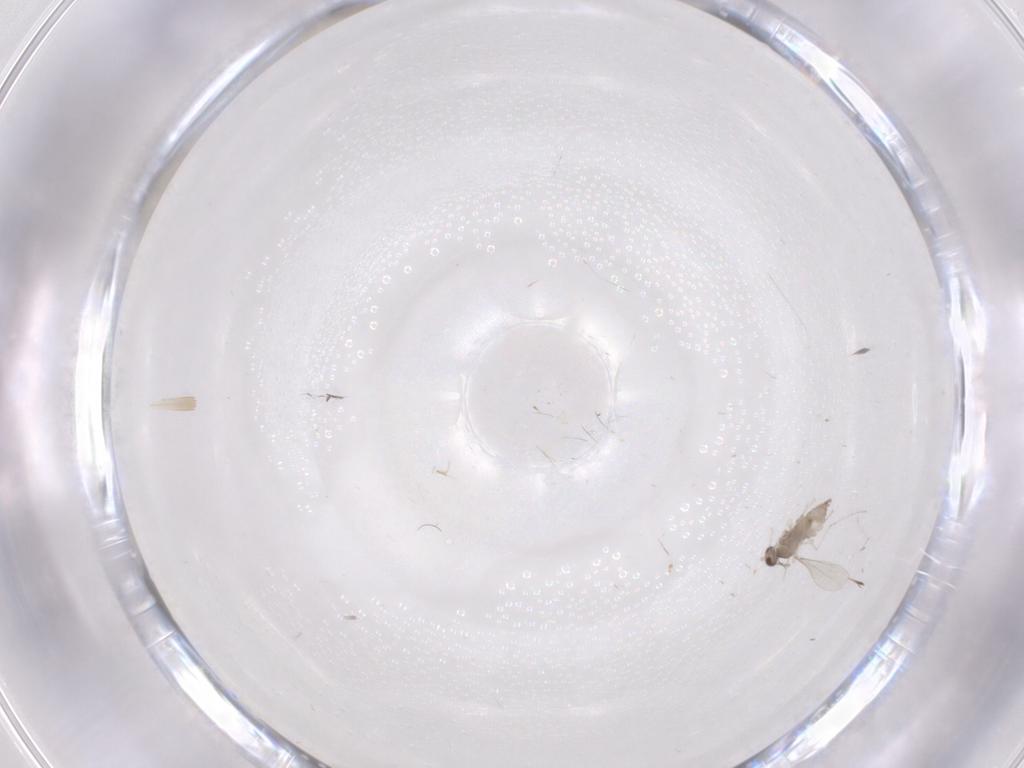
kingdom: Animalia
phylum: Arthropoda
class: Insecta
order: Diptera
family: Cecidomyiidae
